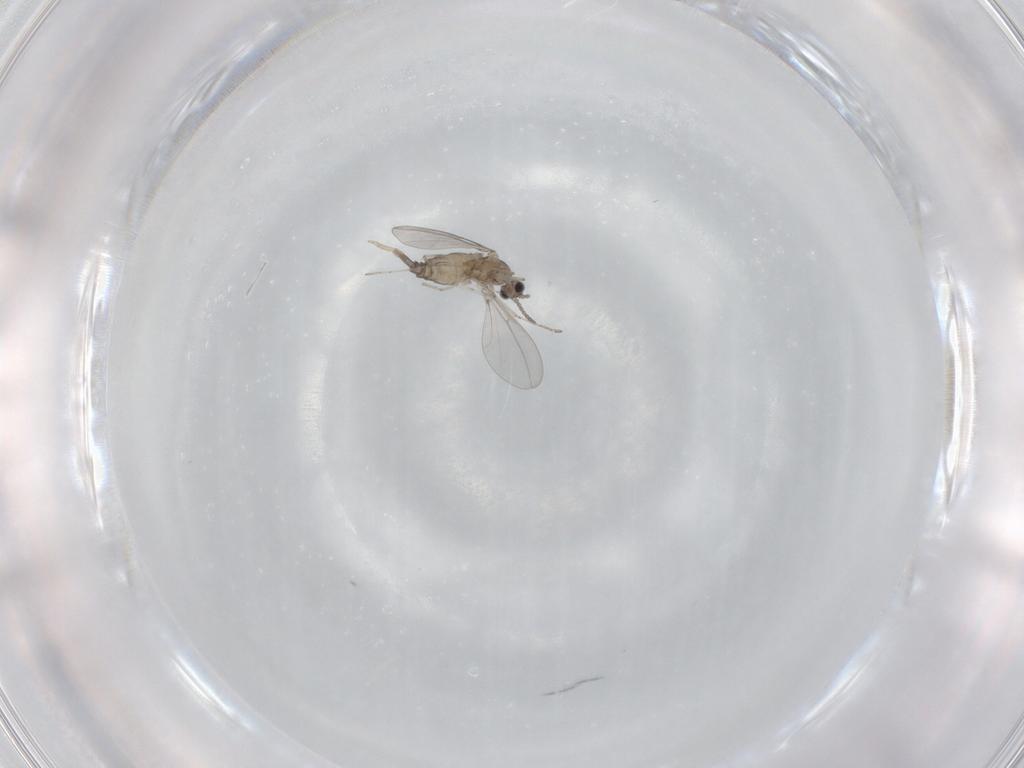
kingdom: Animalia
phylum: Arthropoda
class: Insecta
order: Diptera
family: Cecidomyiidae
